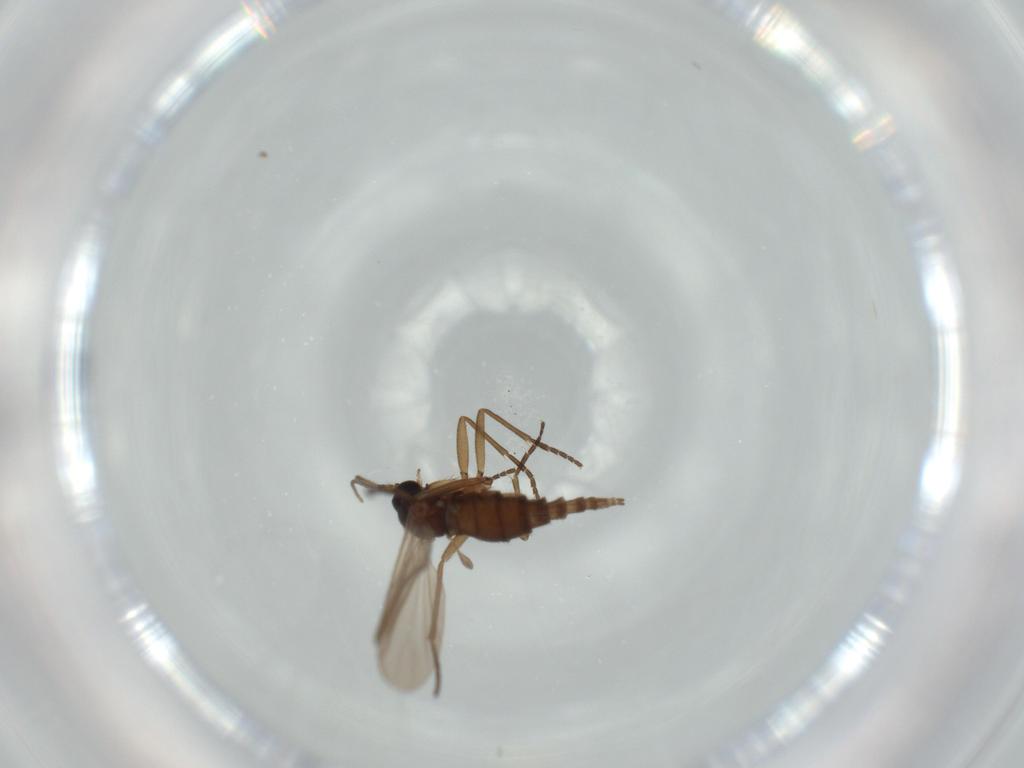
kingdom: Animalia
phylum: Arthropoda
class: Insecta
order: Diptera
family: Sciaridae
